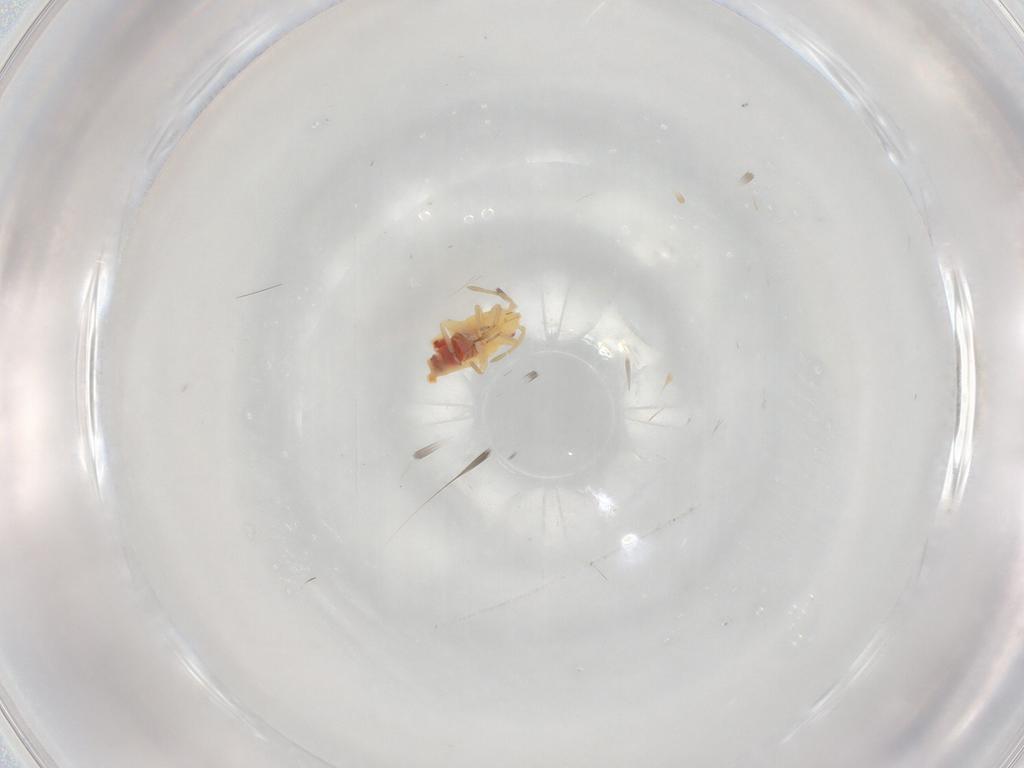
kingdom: Animalia
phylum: Arthropoda
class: Insecta
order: Hemiptera
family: Miridae
